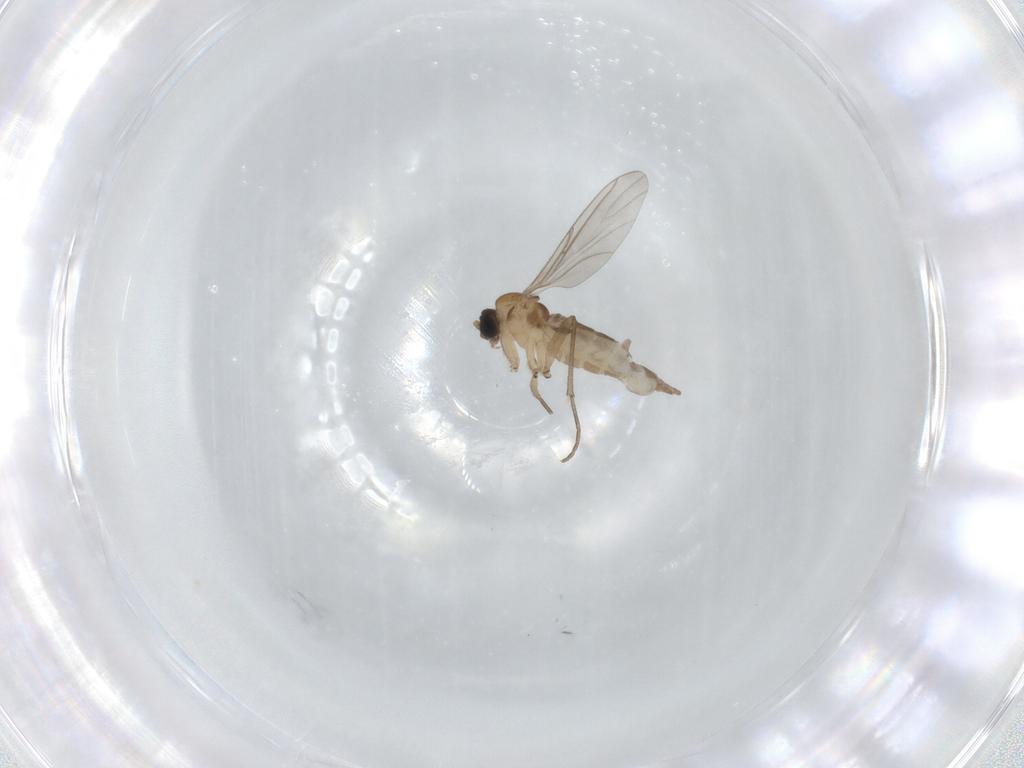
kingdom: Animalia
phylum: Arthropoda
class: Insecta
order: Diptera
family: Sciaridae
